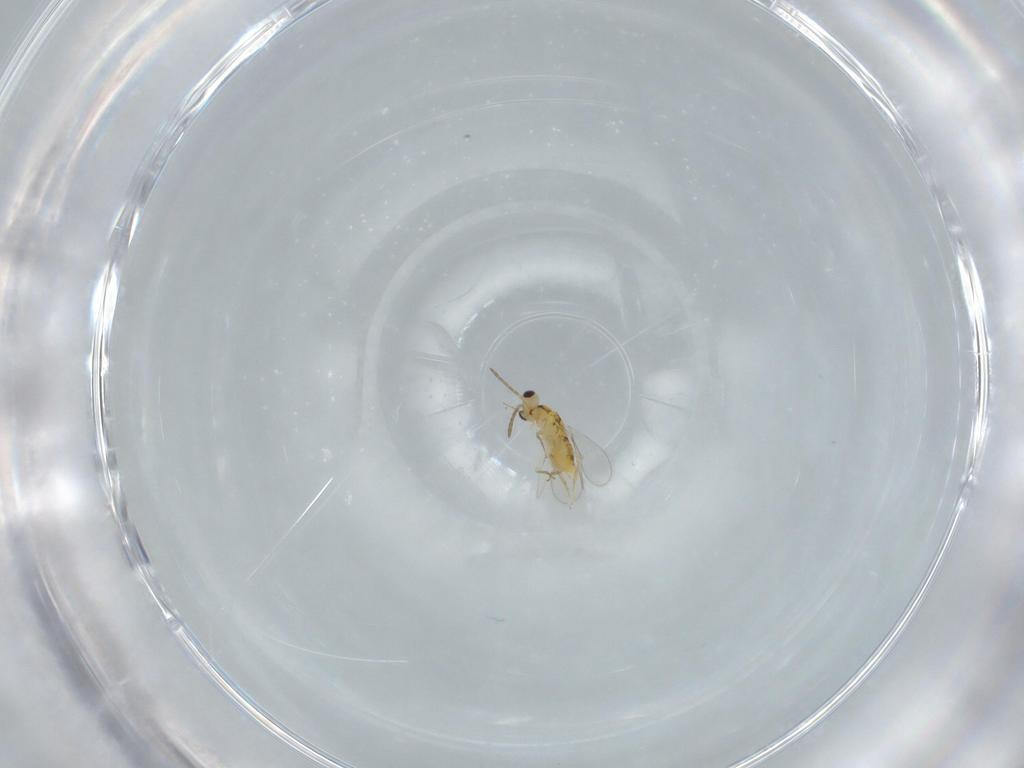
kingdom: Animalia
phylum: Arthropoda
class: Insecta
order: Hymenoptera
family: Aphelinidae
